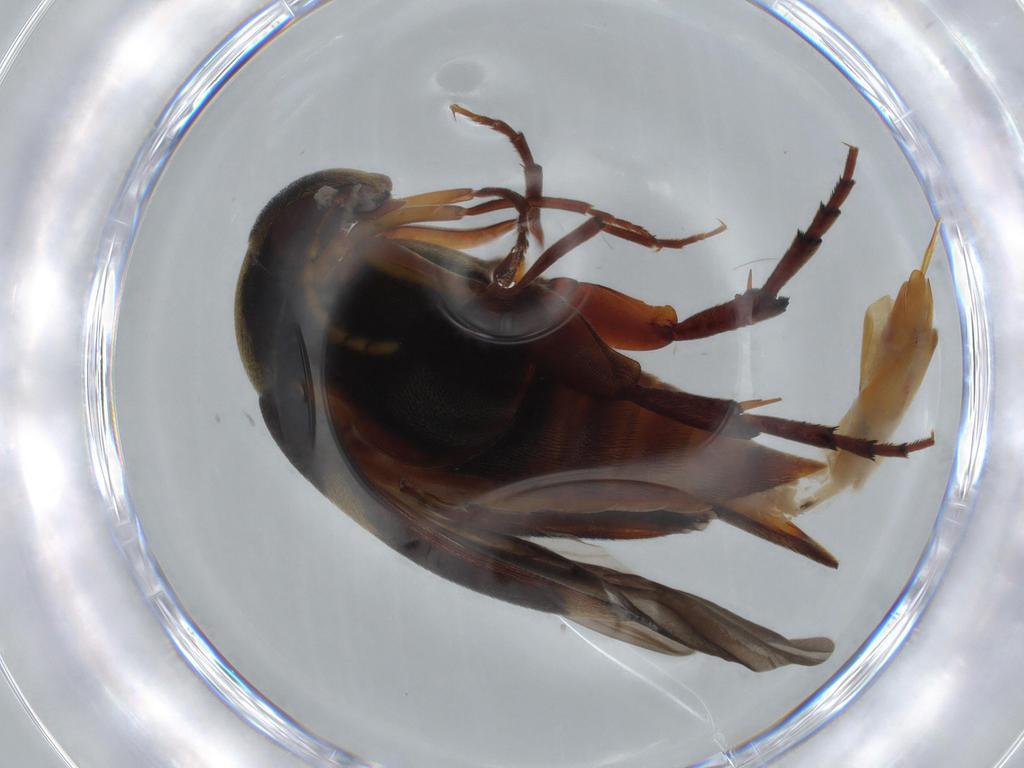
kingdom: Animalia
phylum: Arthropoda
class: Insecta
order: Coleoptera
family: Mordellidae
